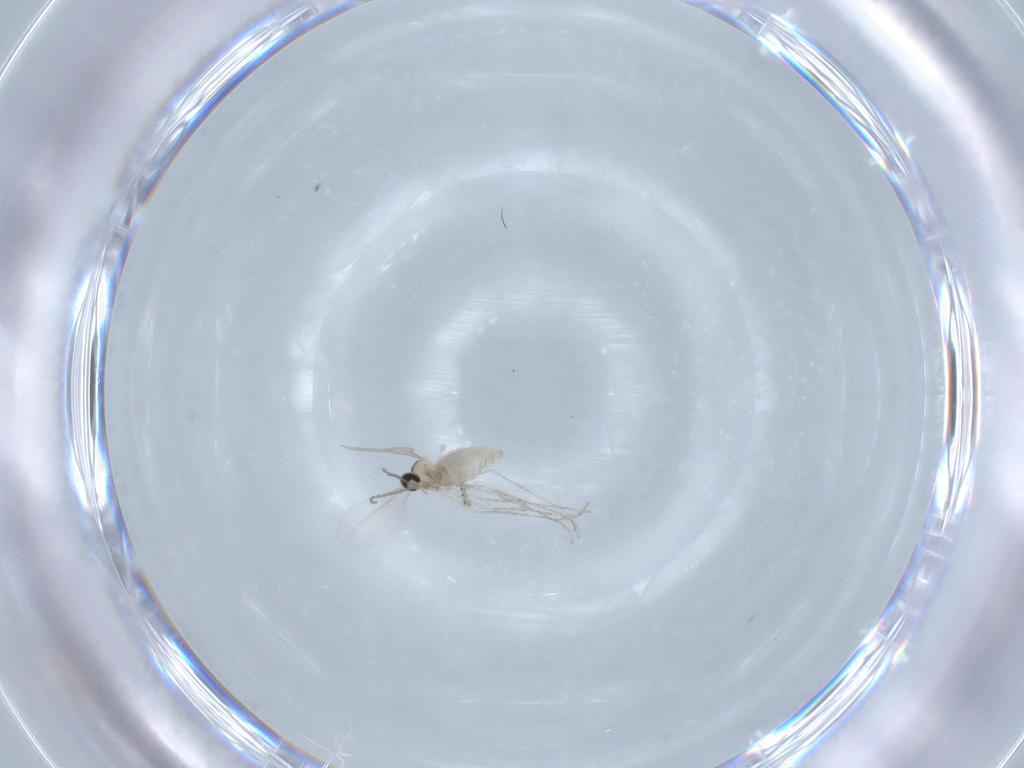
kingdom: Animalia
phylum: Arthropoda
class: Insecta
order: Diptera
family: Phoridae
